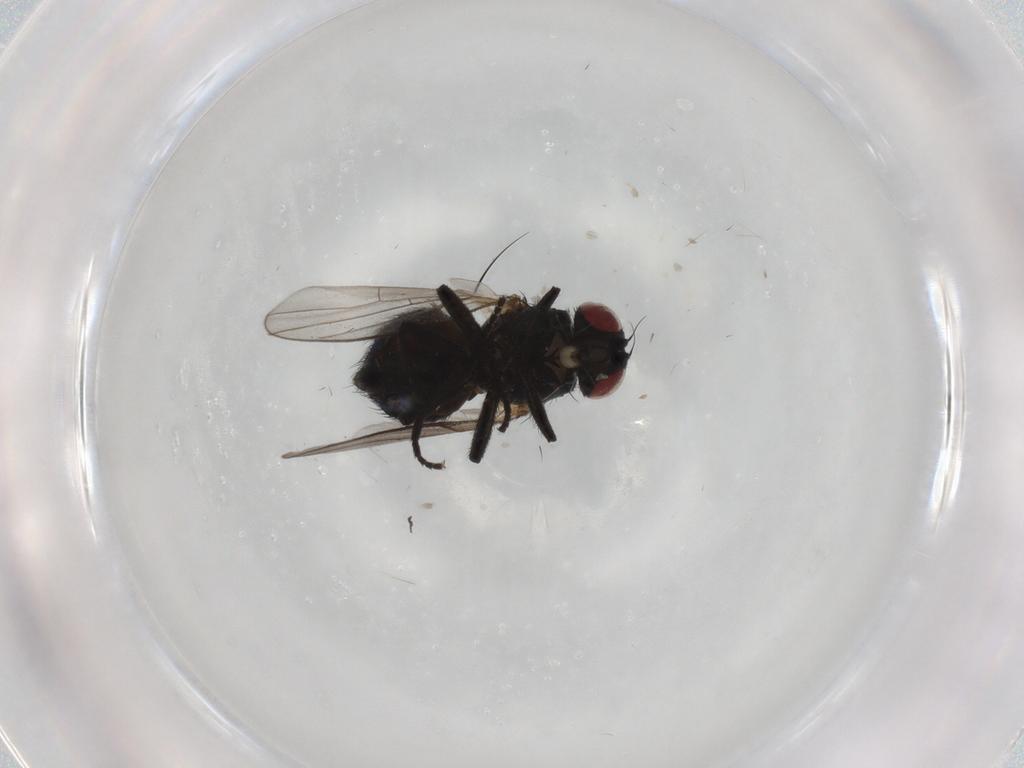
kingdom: Animalia
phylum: Arthropoda
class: Insecta
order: Diptera
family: Agromyzidae
